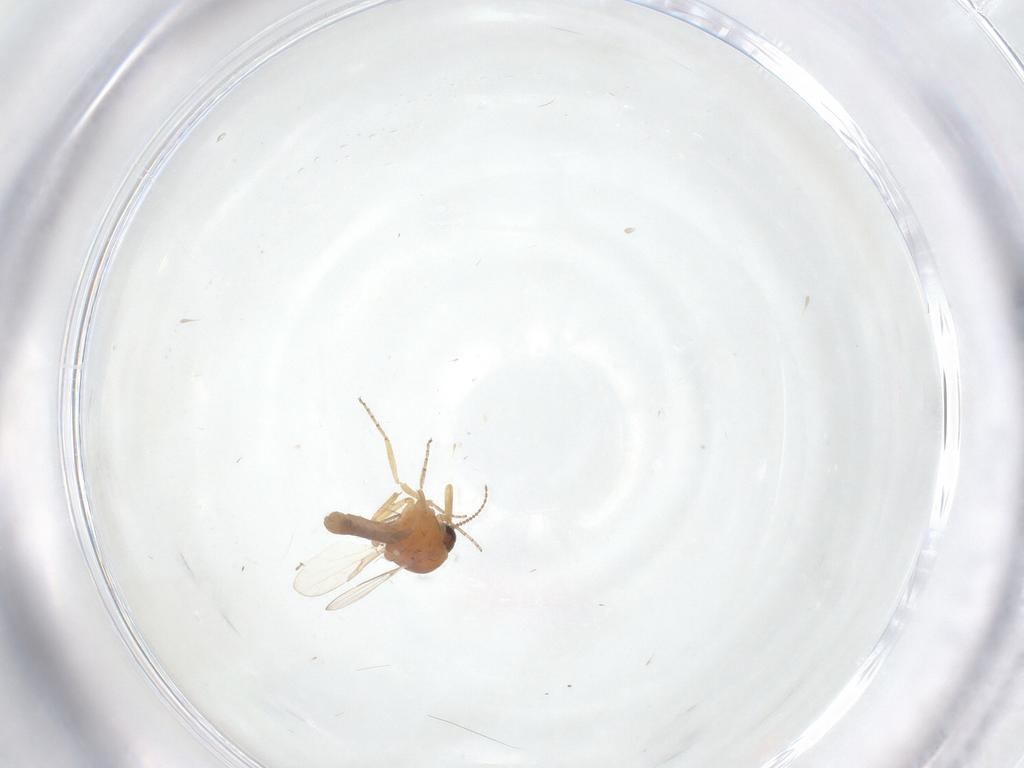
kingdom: Animalia
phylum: Arthropoda
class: Insecta
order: Diptera
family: Ceratopogonidae
